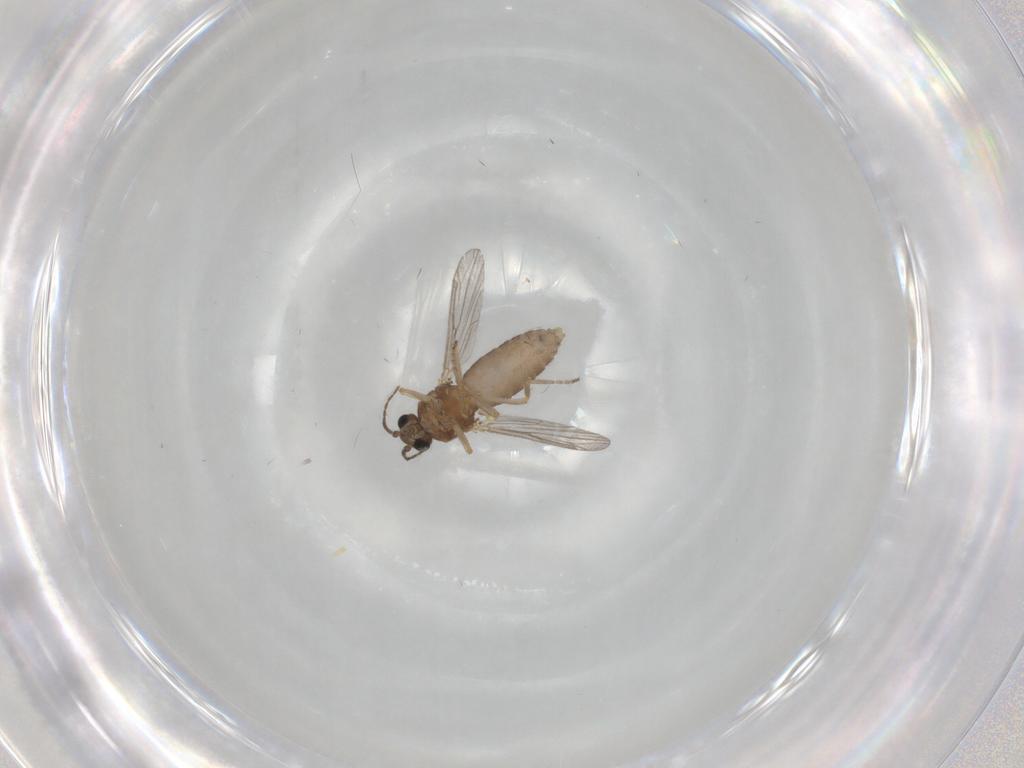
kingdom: Animalia
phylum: Arthropoda
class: Insecta
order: Diptera
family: Ceratopogonidae
